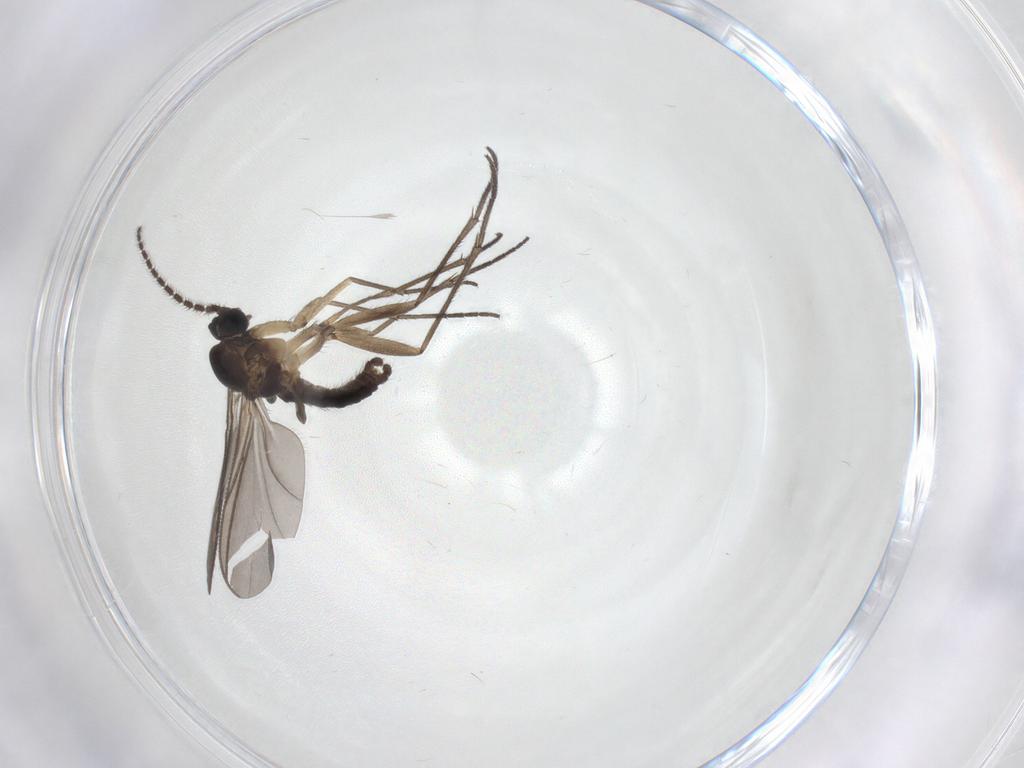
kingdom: Animalia
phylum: Arthropoda
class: Insecta
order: Diptera
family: Sciaridae
